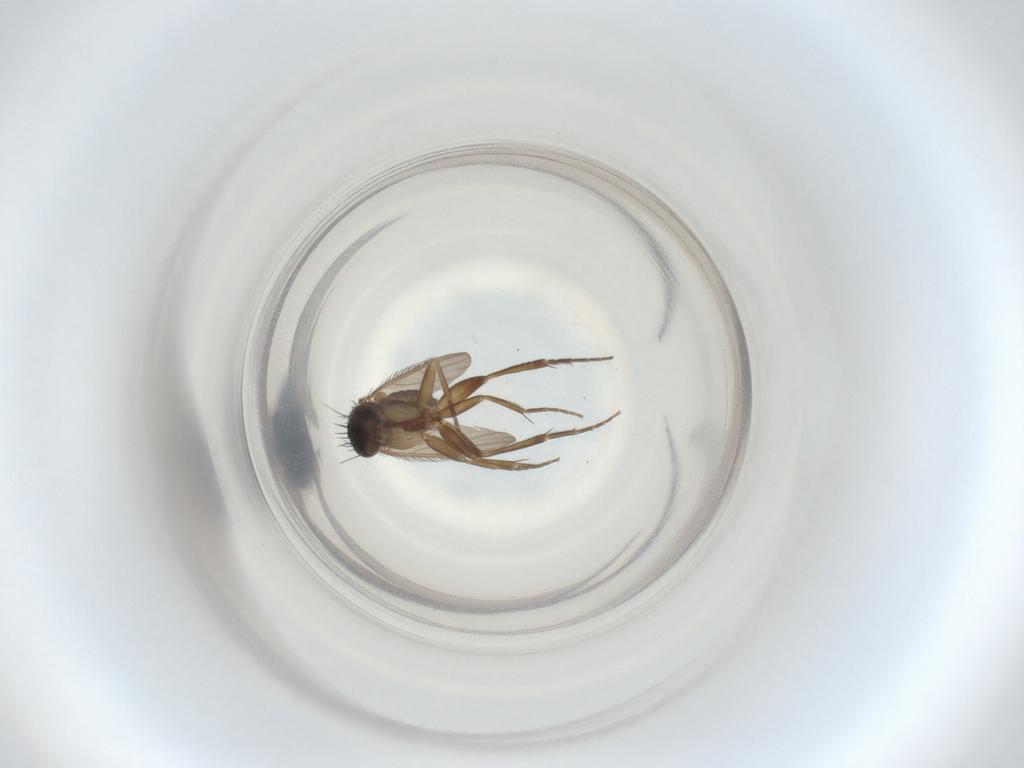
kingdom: Animalia
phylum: Arthropoda
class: Insecta
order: Diptera
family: Phoridae
